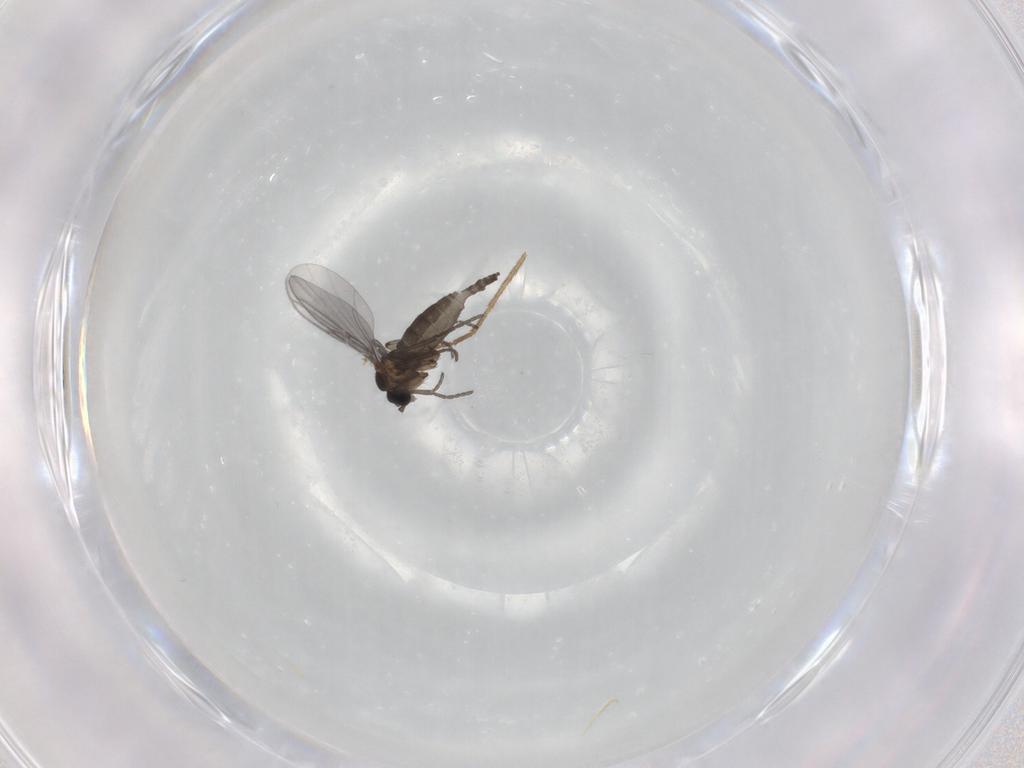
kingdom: Animalia
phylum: Arthropoda
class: Insecta
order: Diptera
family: Chironomidae
